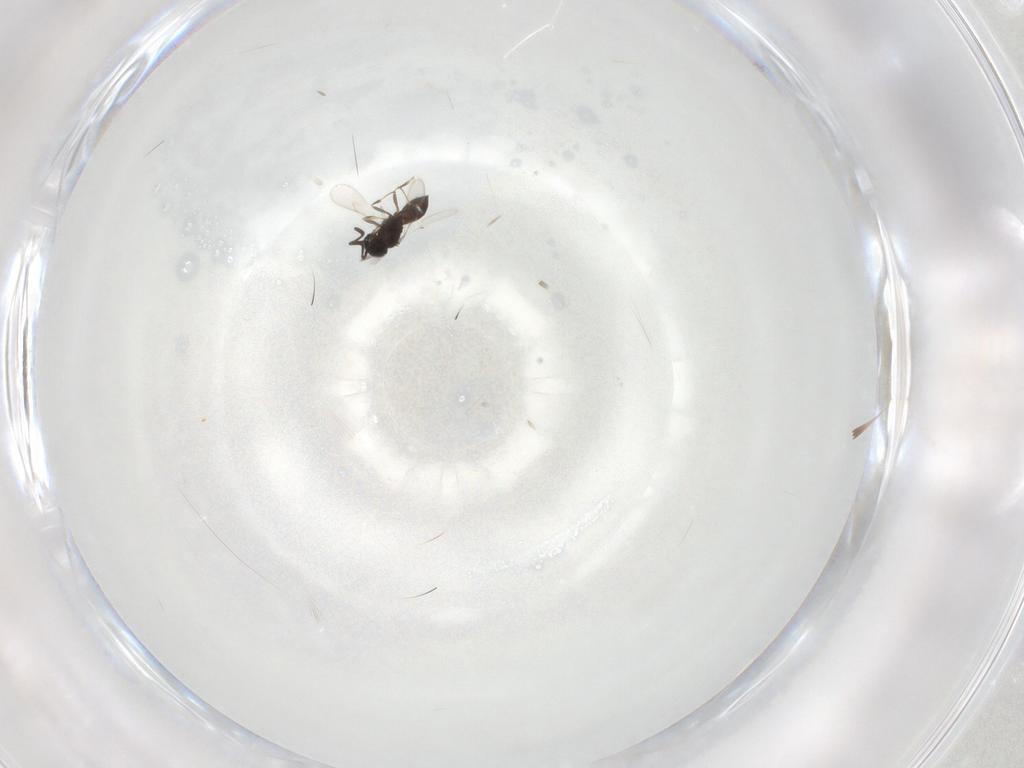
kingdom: Animalia
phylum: Arthropoda
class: Insecta
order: Hymenoptera
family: Scelionidae
